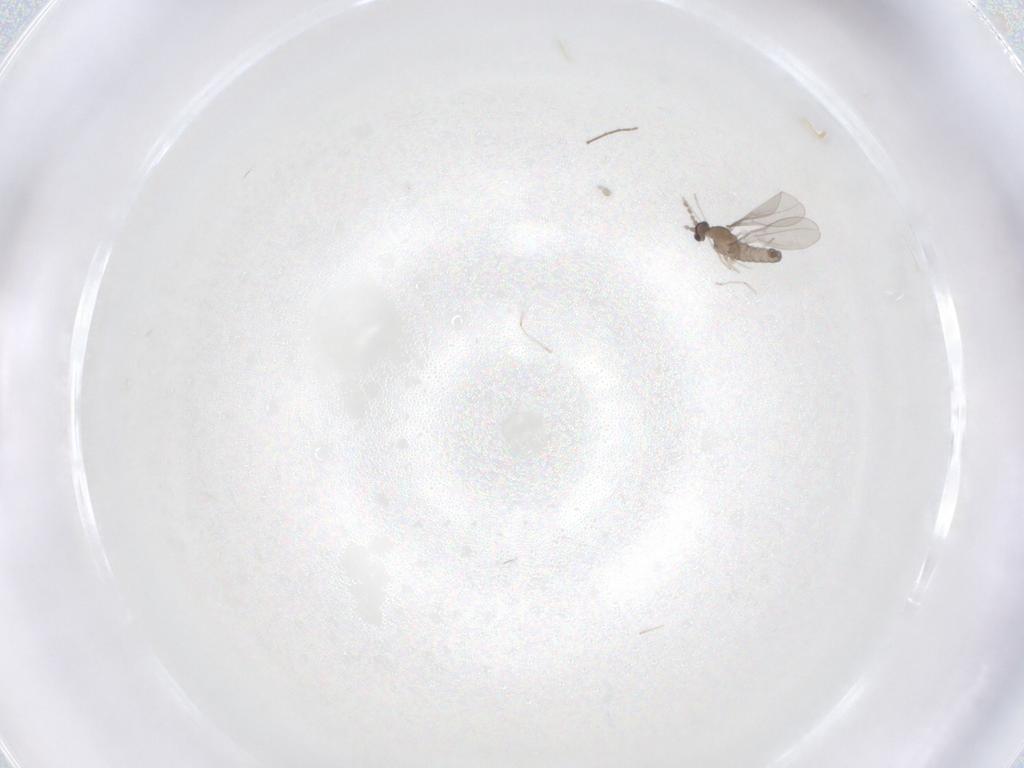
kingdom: Animalia
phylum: Arthropoda
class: Insecta
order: Diptera
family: Cecidomyiidae
